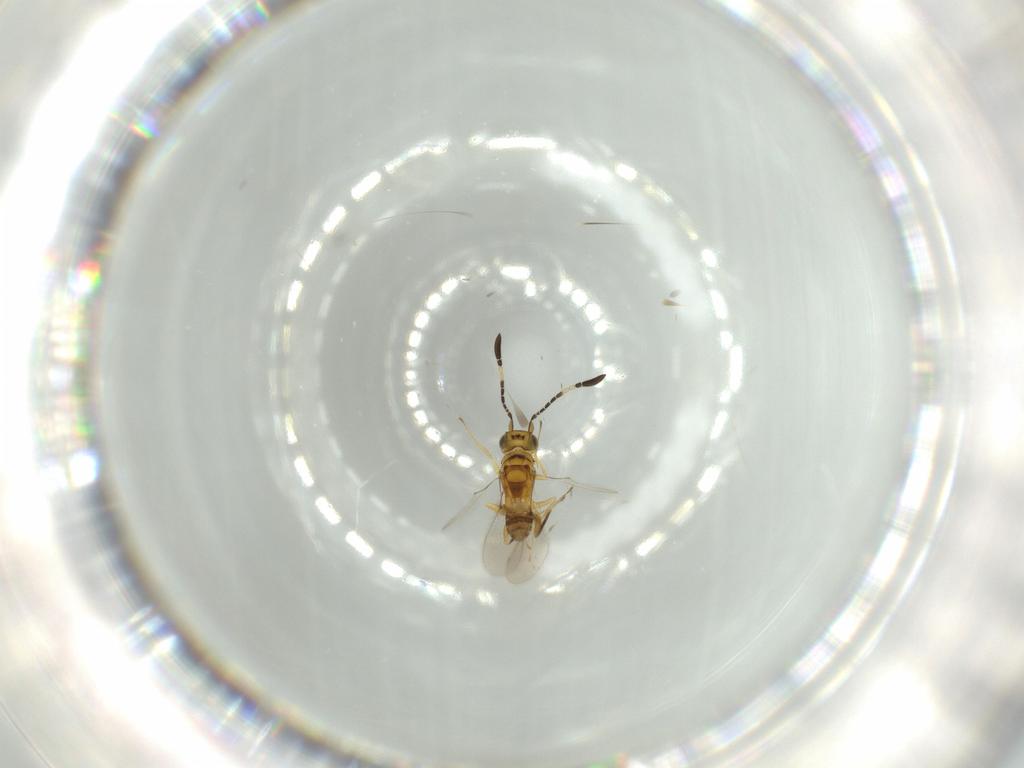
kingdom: Animalia
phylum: Arthropoda
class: Insecta
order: Hymenoptera
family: Formicidae
